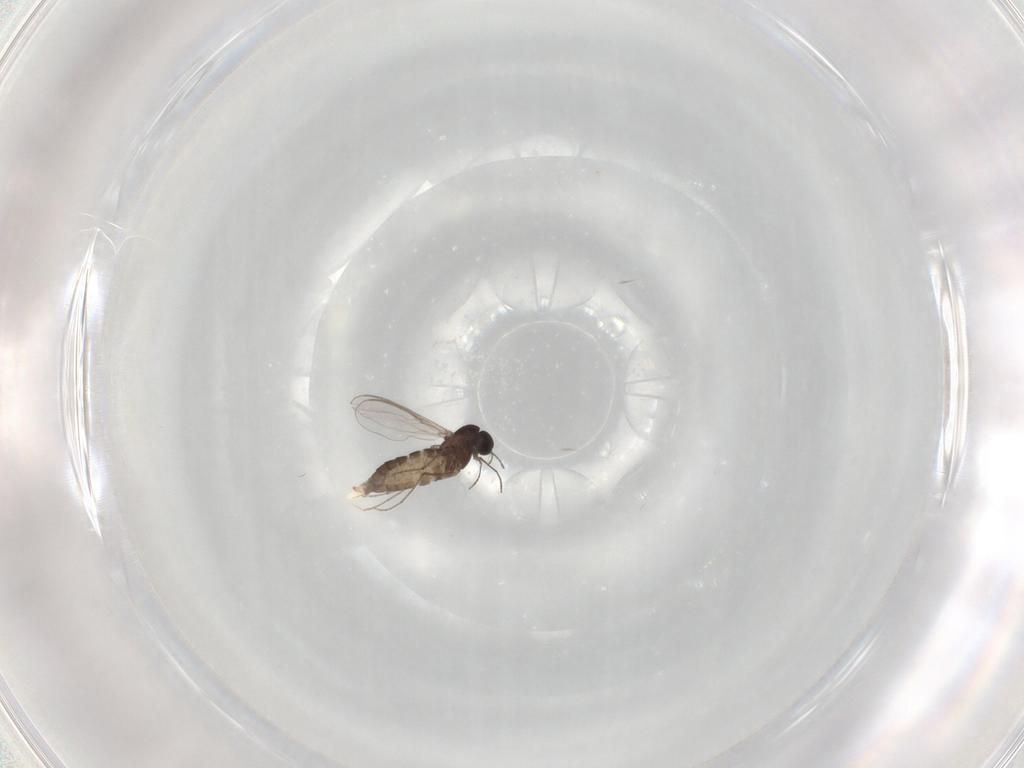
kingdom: Animalia
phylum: Arthropoda
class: Insecta
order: Diptera
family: Chironomidae
